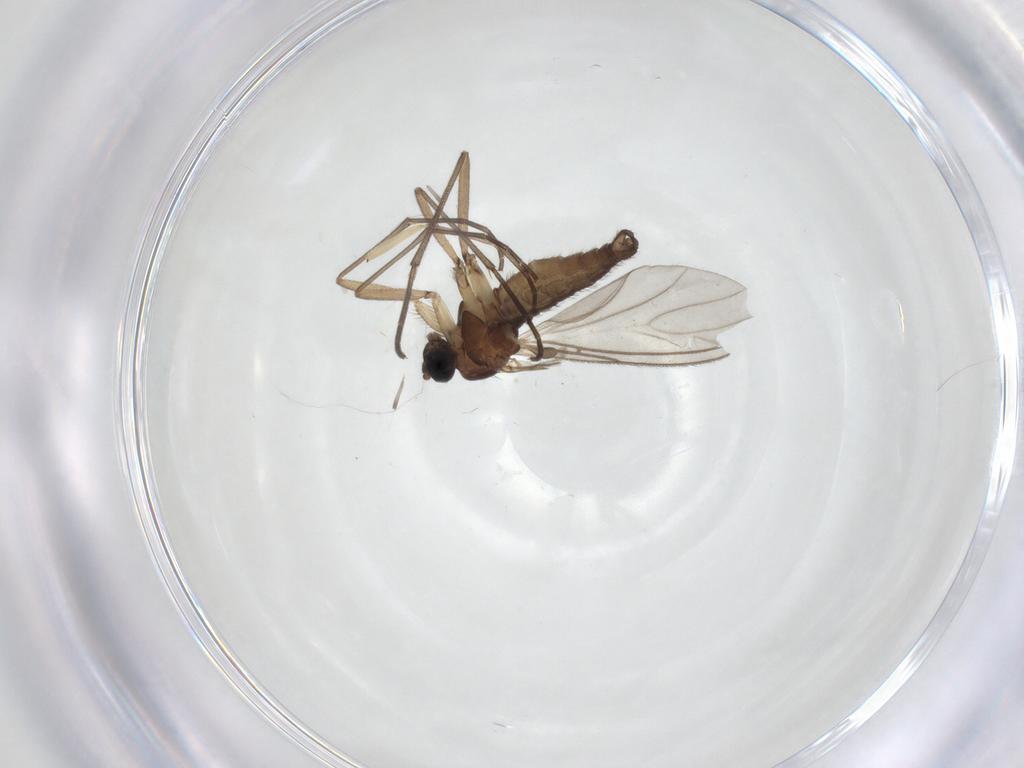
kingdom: Animalia
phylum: Arthropoda
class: Insecta
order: Diptera
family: Sciaridae
